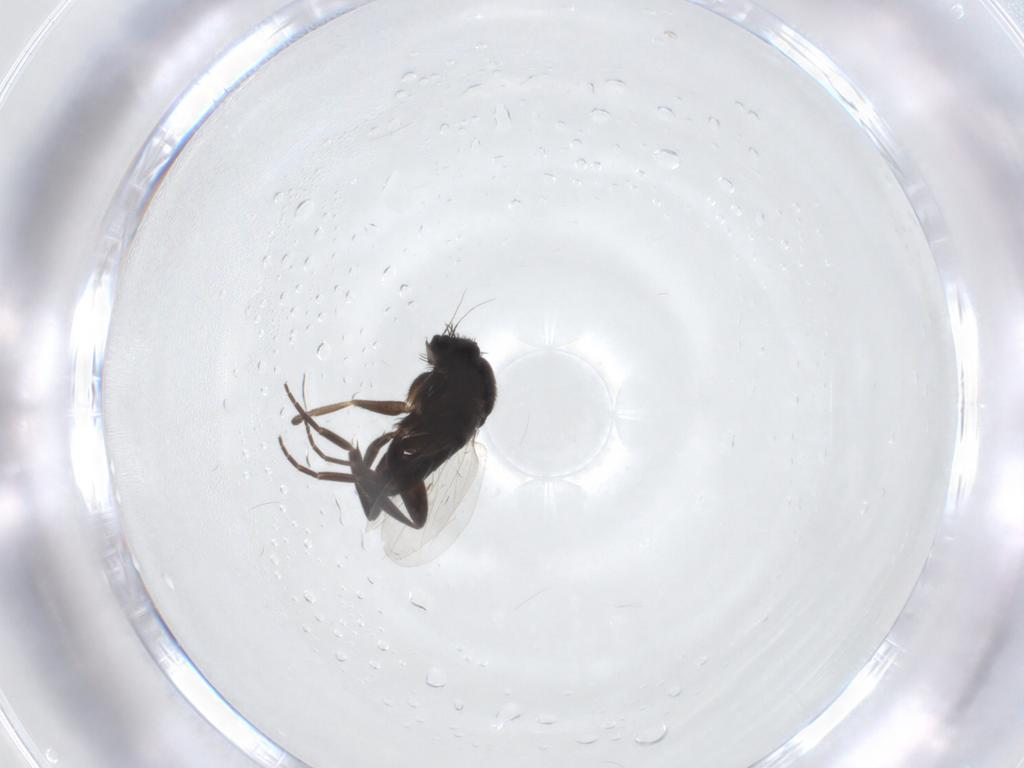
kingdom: Animalia
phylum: Arthropoda
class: Insecta
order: Diptera
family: Phoridae
